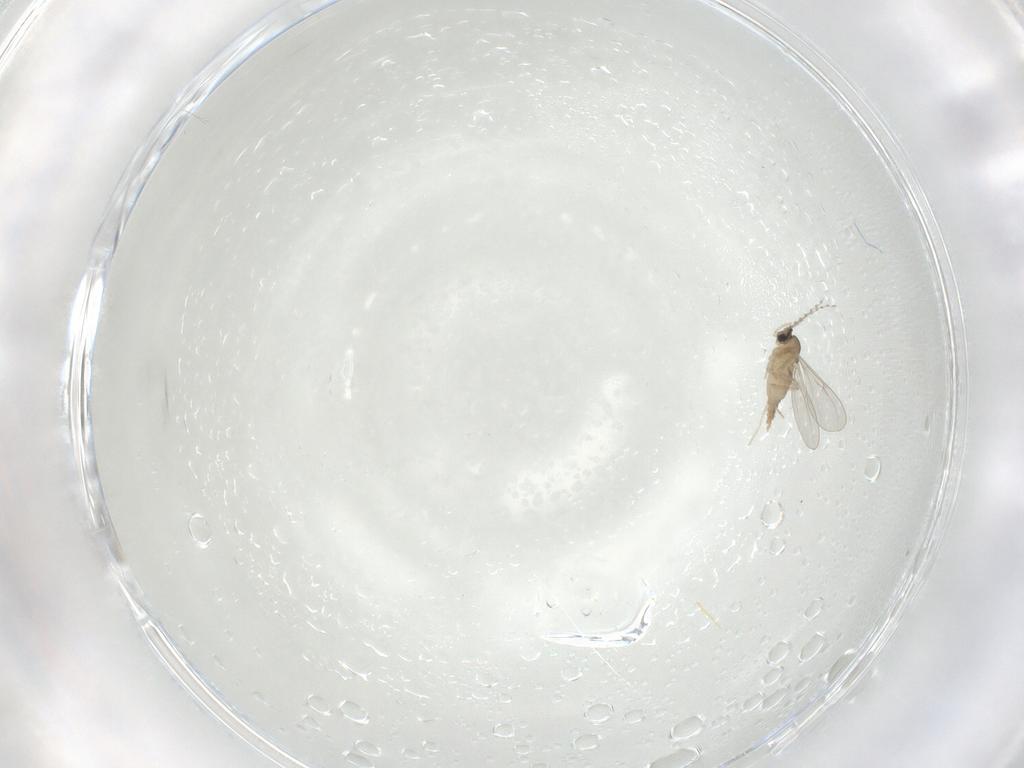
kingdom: Animalia
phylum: Arthropoda
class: Insecta
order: Diptera
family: Cecidomyiidae
